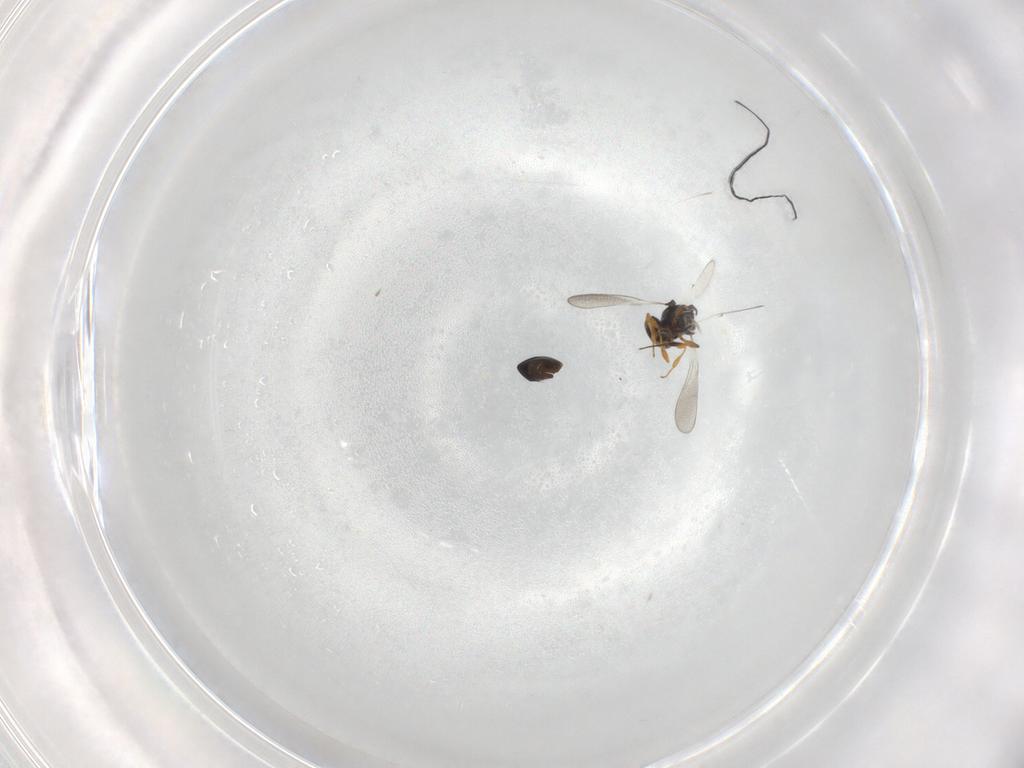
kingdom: Animalia
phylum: Arthropoda
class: Insecta
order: Hymenoptera
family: Platygastridae
